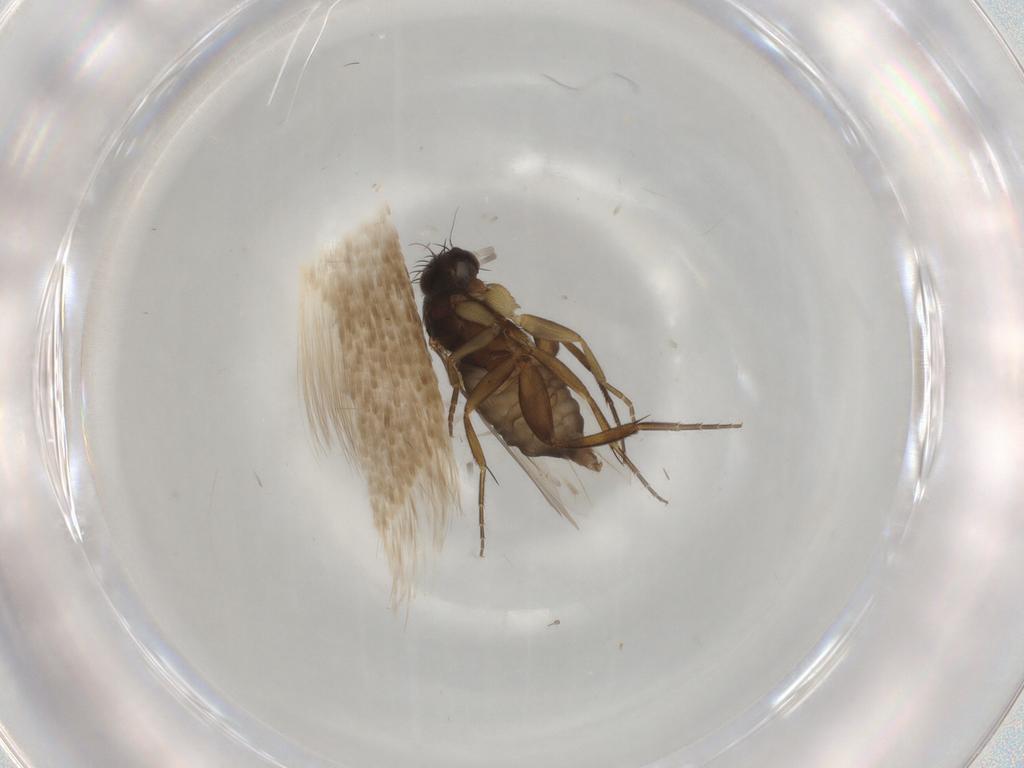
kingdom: Animalia
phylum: Arthropoda
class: Insecta
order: Diptera
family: Phoridae
